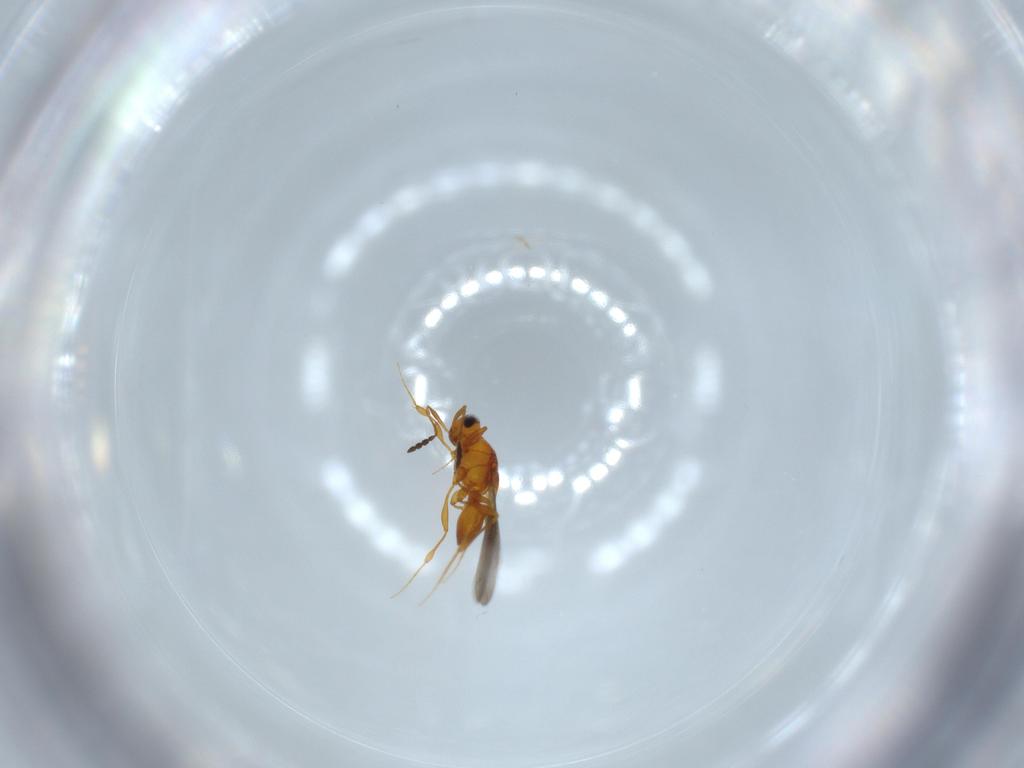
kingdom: Animalia
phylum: Arthropoda
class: Insecta
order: Hymenoptera
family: Platygastridae
